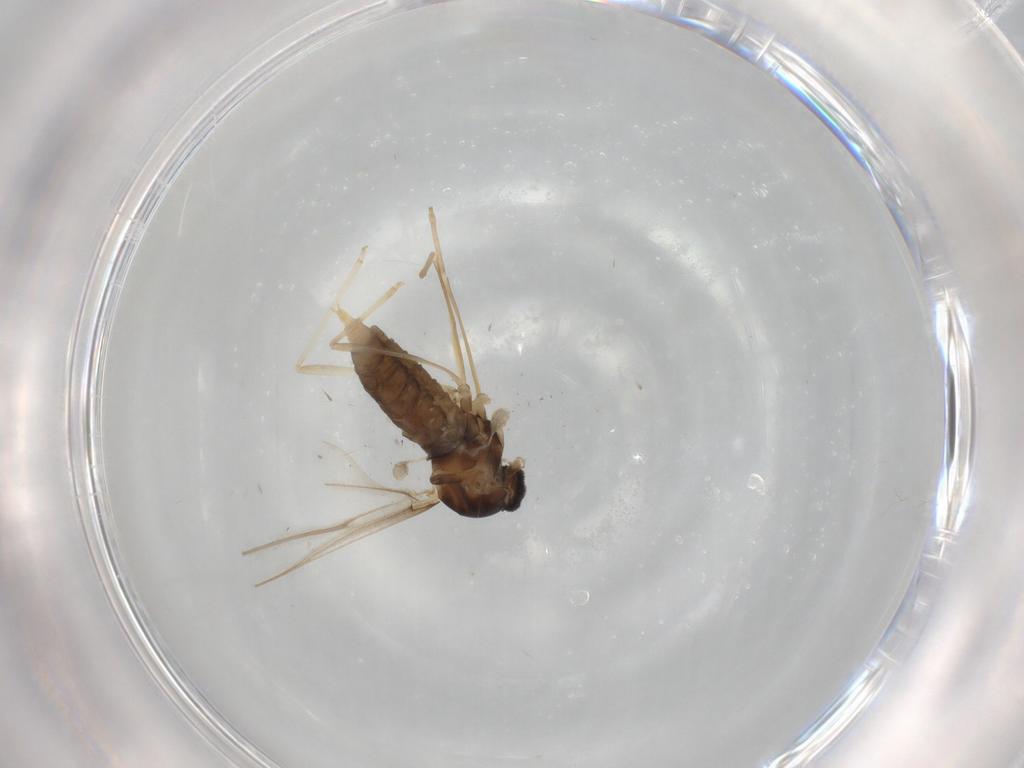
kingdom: Animalia
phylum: Arthropoda
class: Insecta
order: Diptera
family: Cecidomyiidae
